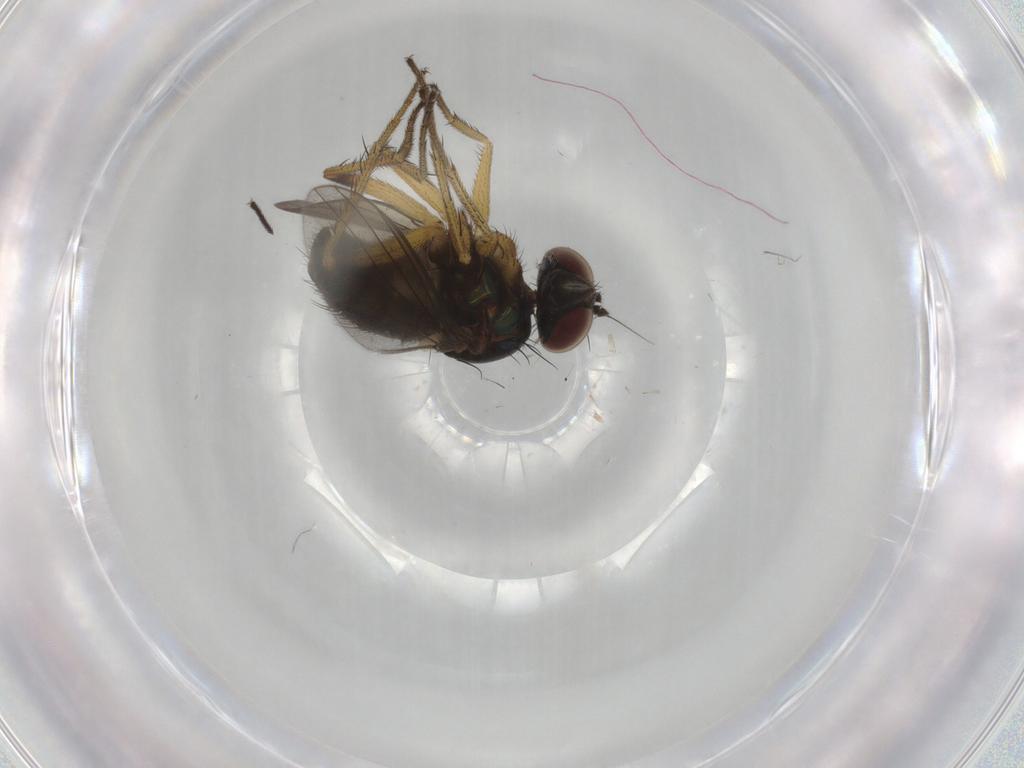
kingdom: Animalia
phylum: Arthropoda
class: Insecta
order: Diptera
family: Dolichopodidae
